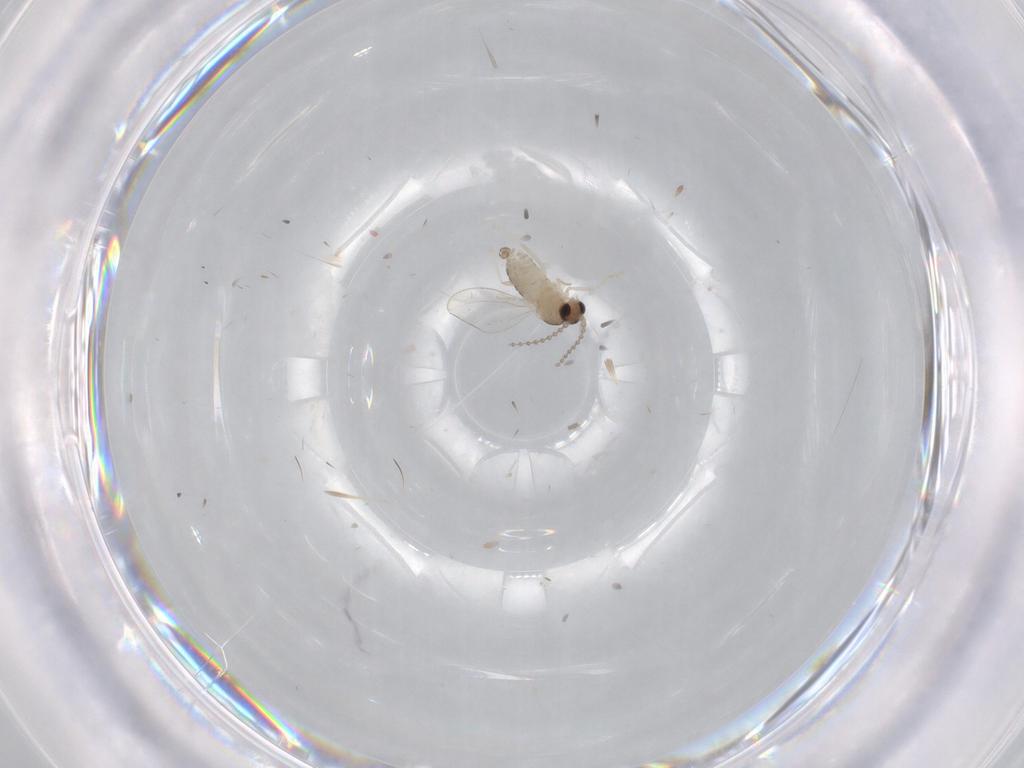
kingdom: Animalia
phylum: Arthropoda
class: Insecta
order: Diptera
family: Cecidomyiidae
